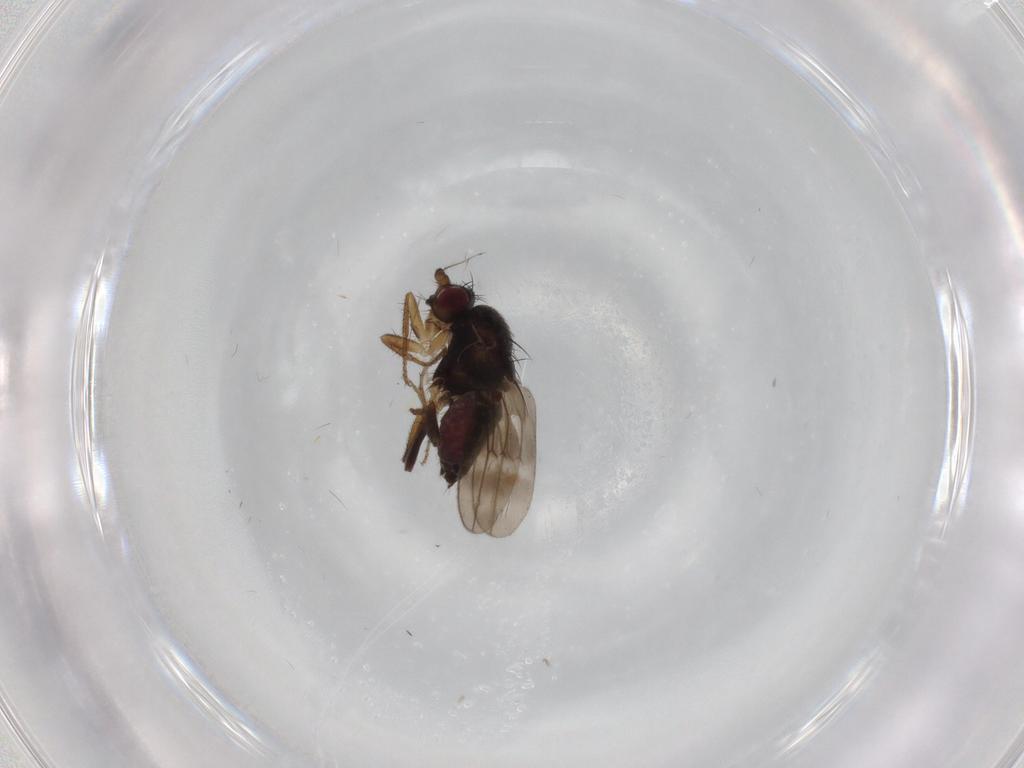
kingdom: Animalia
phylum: Arthropoda
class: Insecta
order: Diptera
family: Sphaeroceridae
